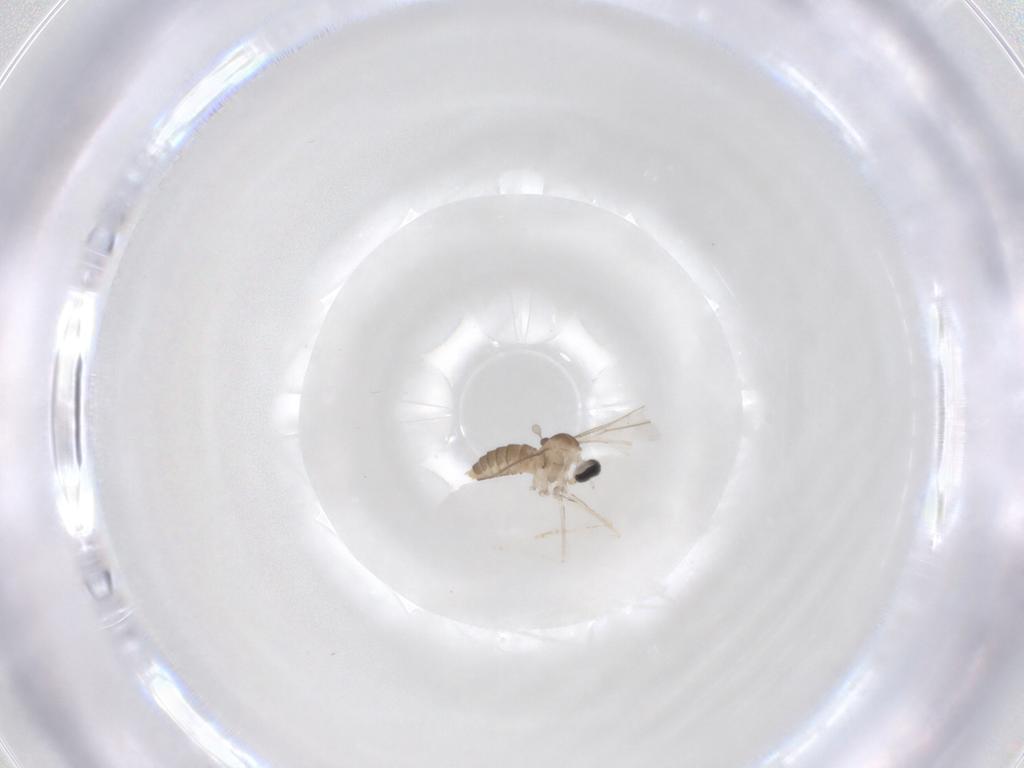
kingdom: Animalia
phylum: Arthropoda
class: Insecta
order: Diptera
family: Cecidomyiidae
